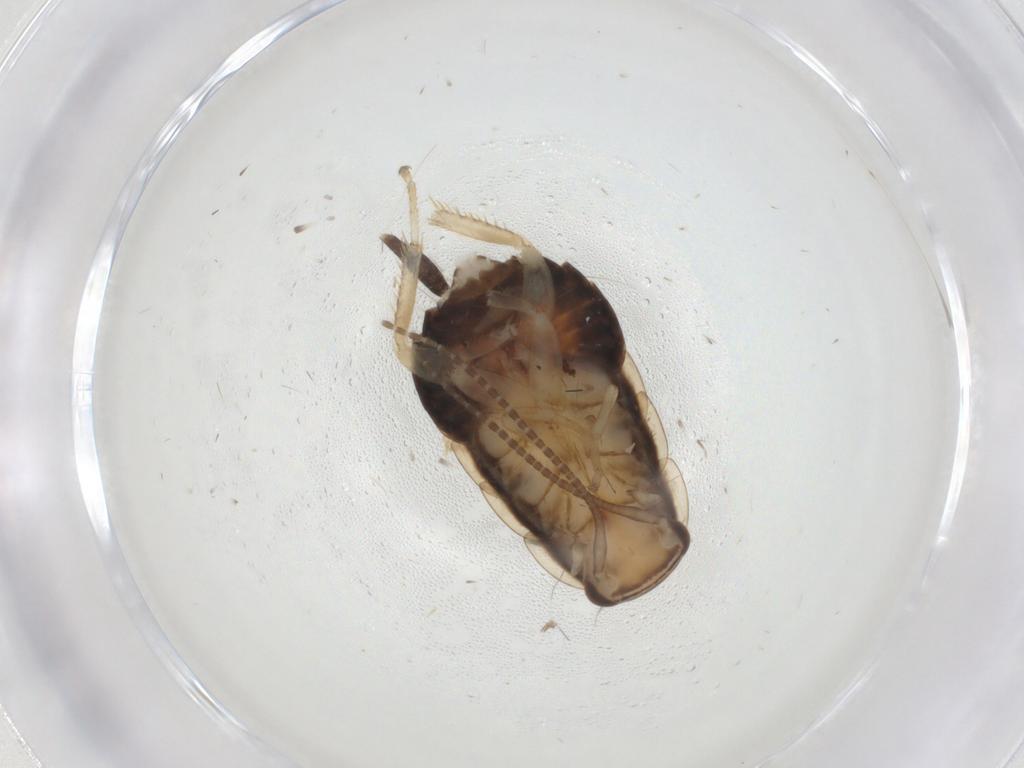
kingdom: Animalia
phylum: Arthropoda
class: Insecta
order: Blattodea
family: Ectobiidae
